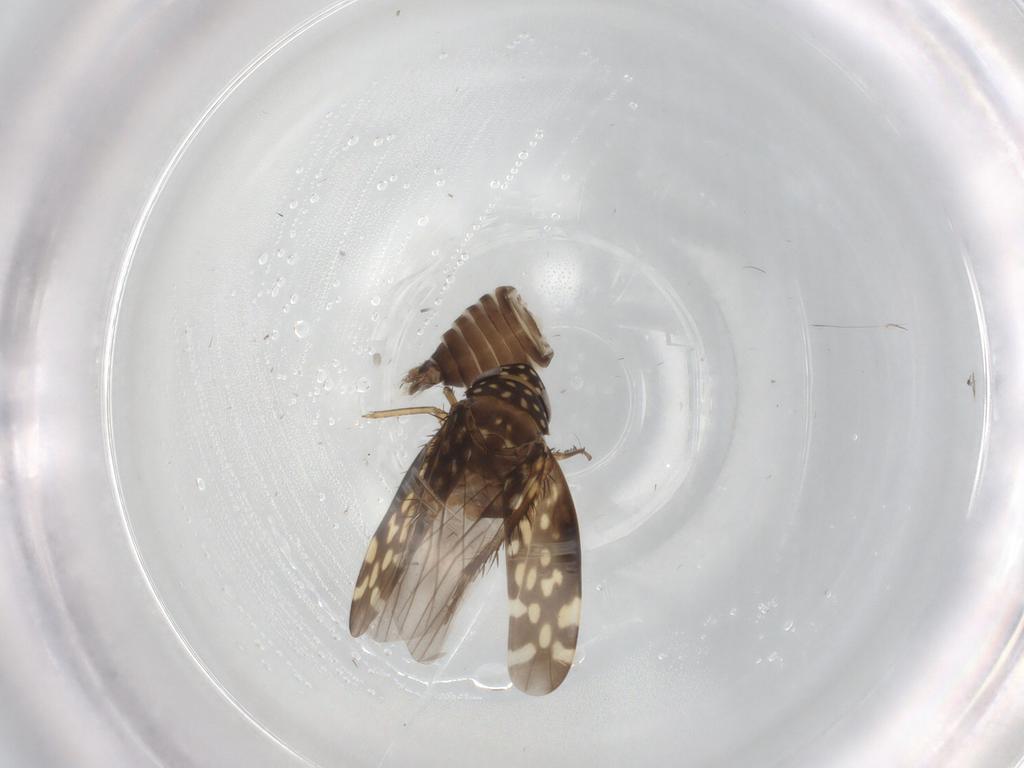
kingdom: Animalia
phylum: Arthropoda
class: Insecta
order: Hemiptera
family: Cicadellidae
